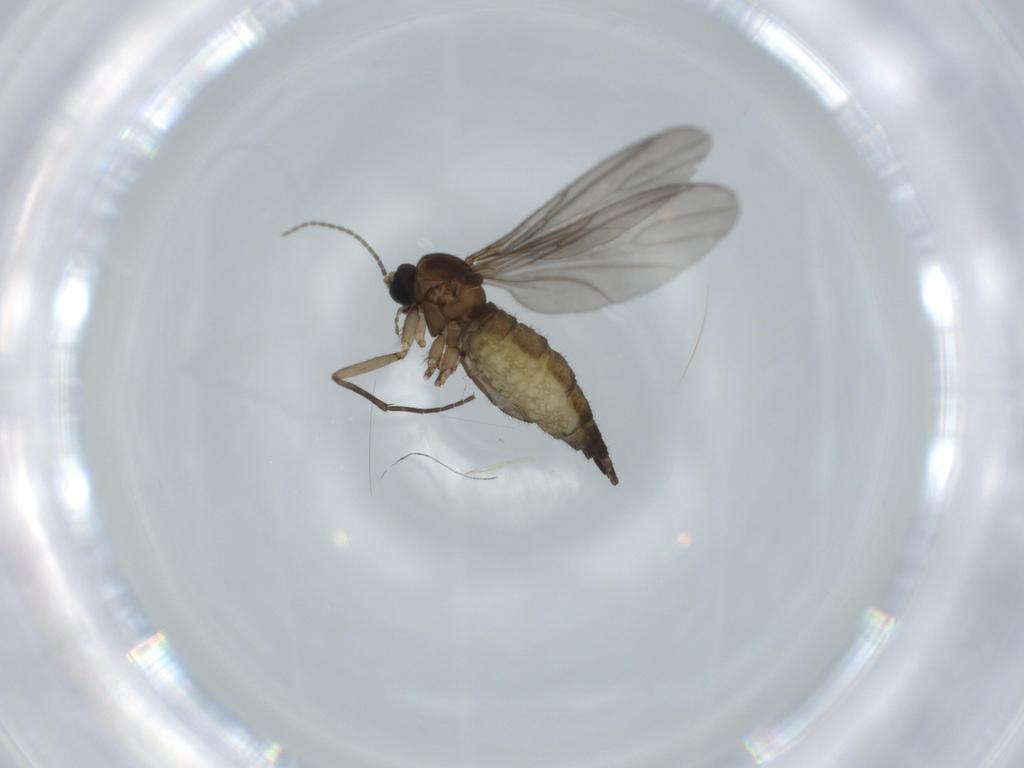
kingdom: Animalia
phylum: Arthropoda
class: Insecta
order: Diptera
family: Sciaridae
